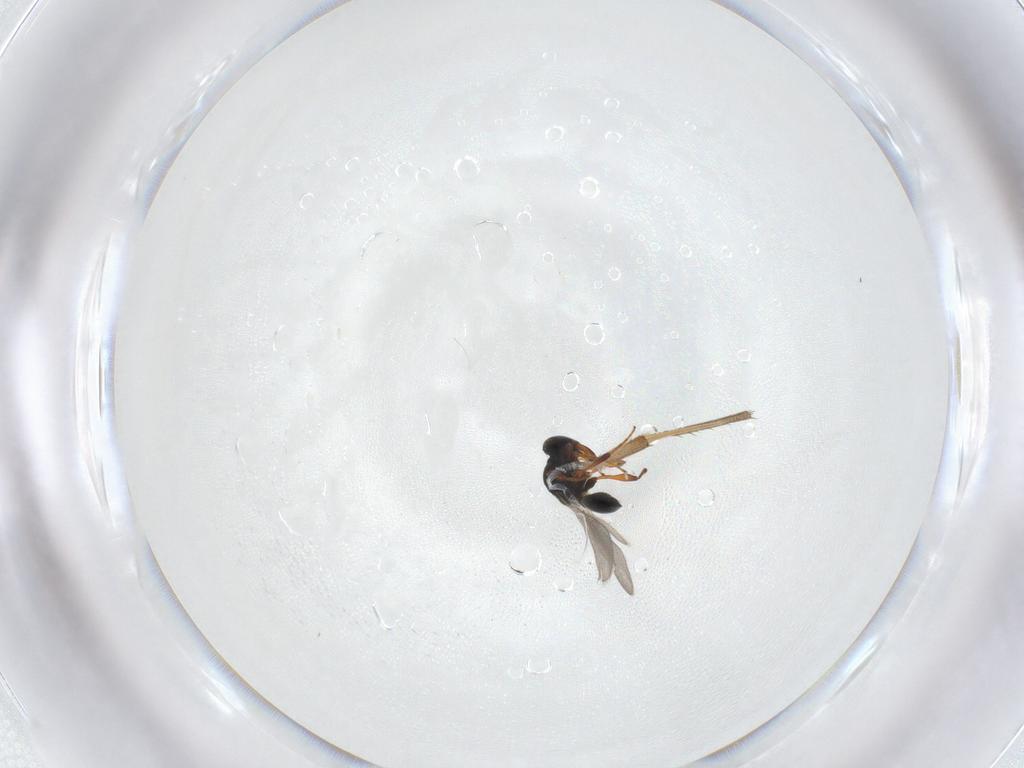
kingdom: Animalia
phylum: Arthropoda
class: Insecta
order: Diptera
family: Mycetophilidae
